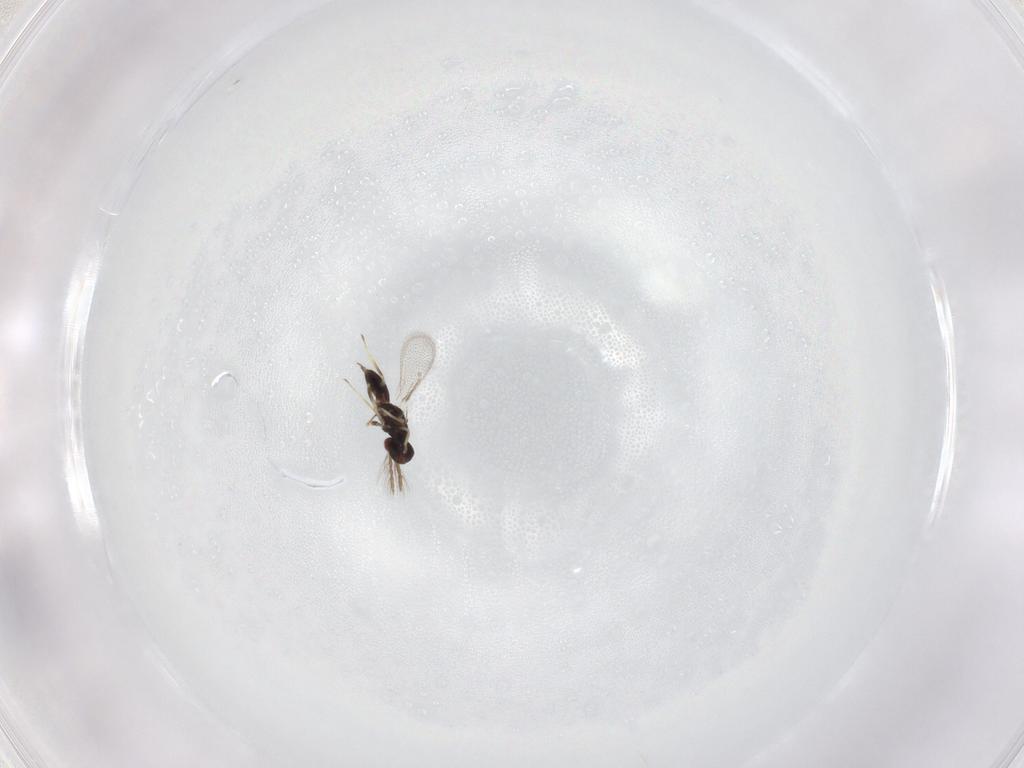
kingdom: Animalia
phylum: Arthropoda
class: Insecta
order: Hymenoptera
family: Eulophidae
